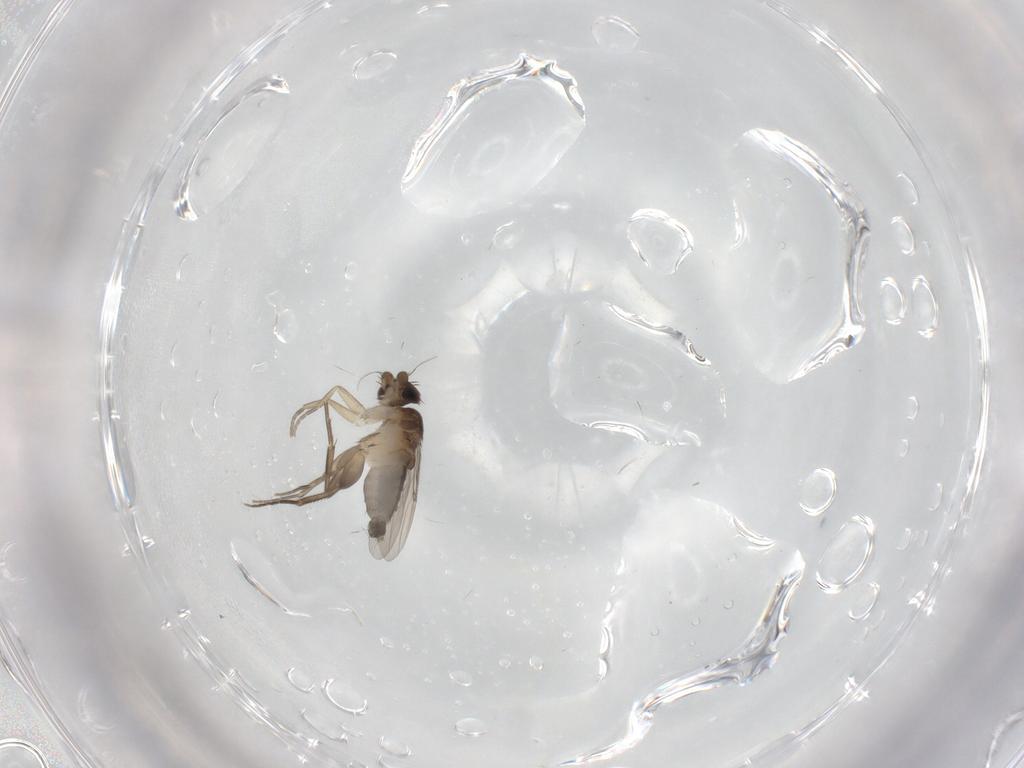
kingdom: Animalia
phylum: Arthropoda
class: Insecta
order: Diptera
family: Phoridae
